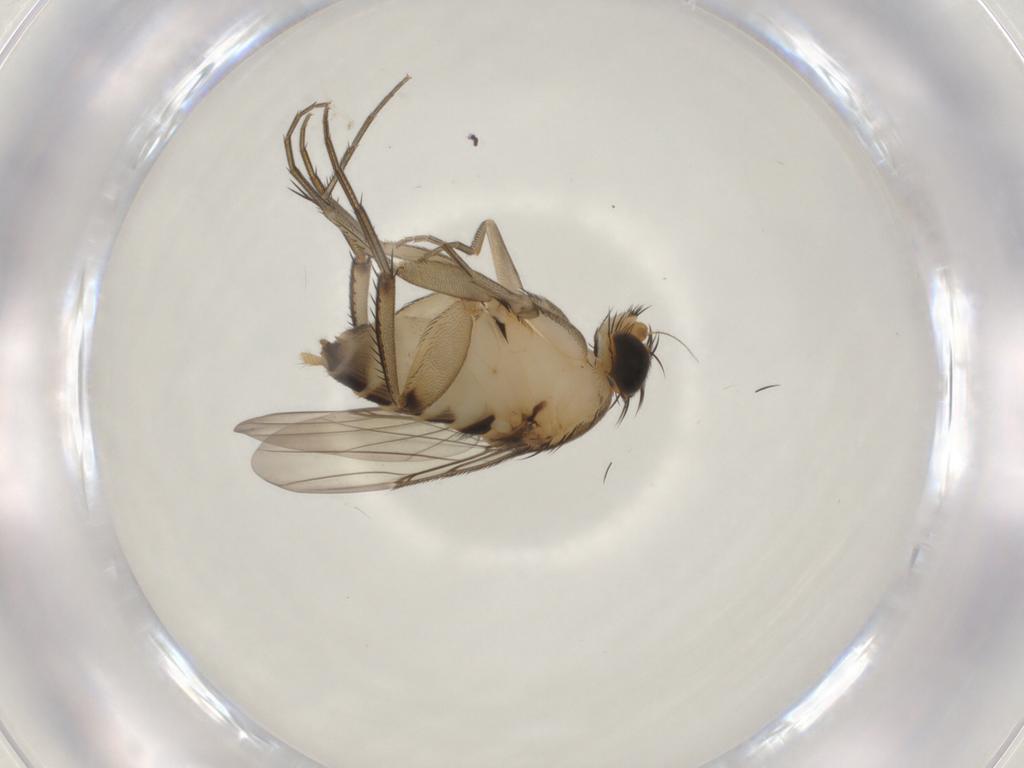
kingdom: Animalia
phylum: Arthropoda
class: Insecta
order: Diptera
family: Phoridae
